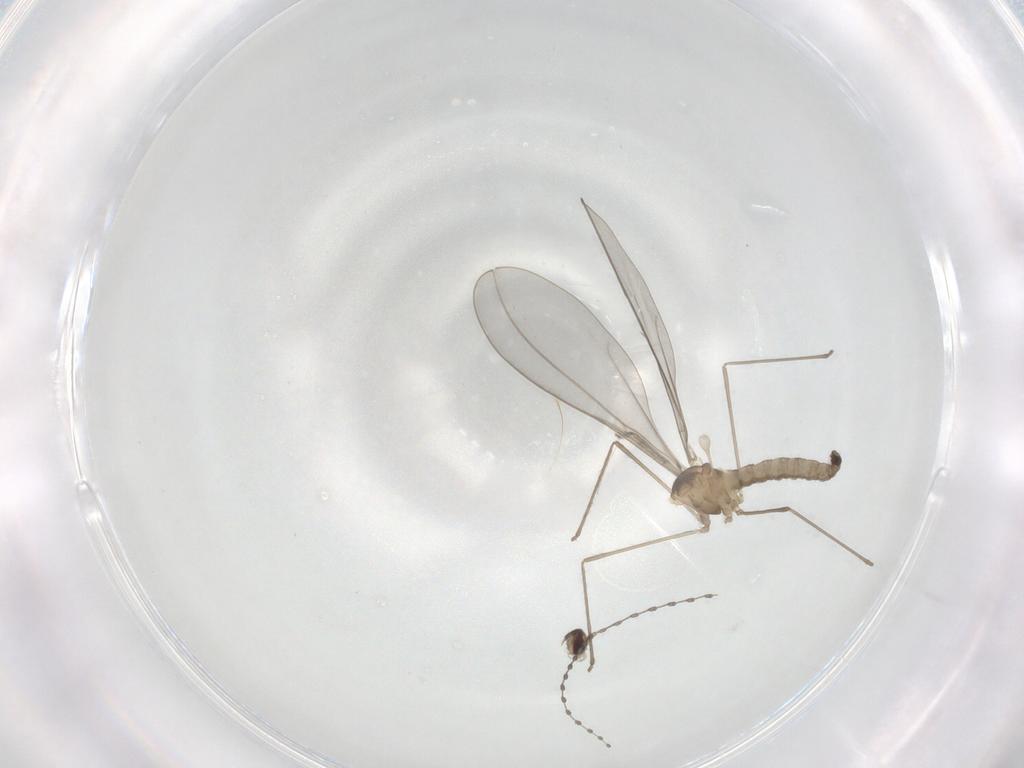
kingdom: Animalia
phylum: Arthropoda
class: Insecta
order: Diptera
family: Cecidomyiidae
